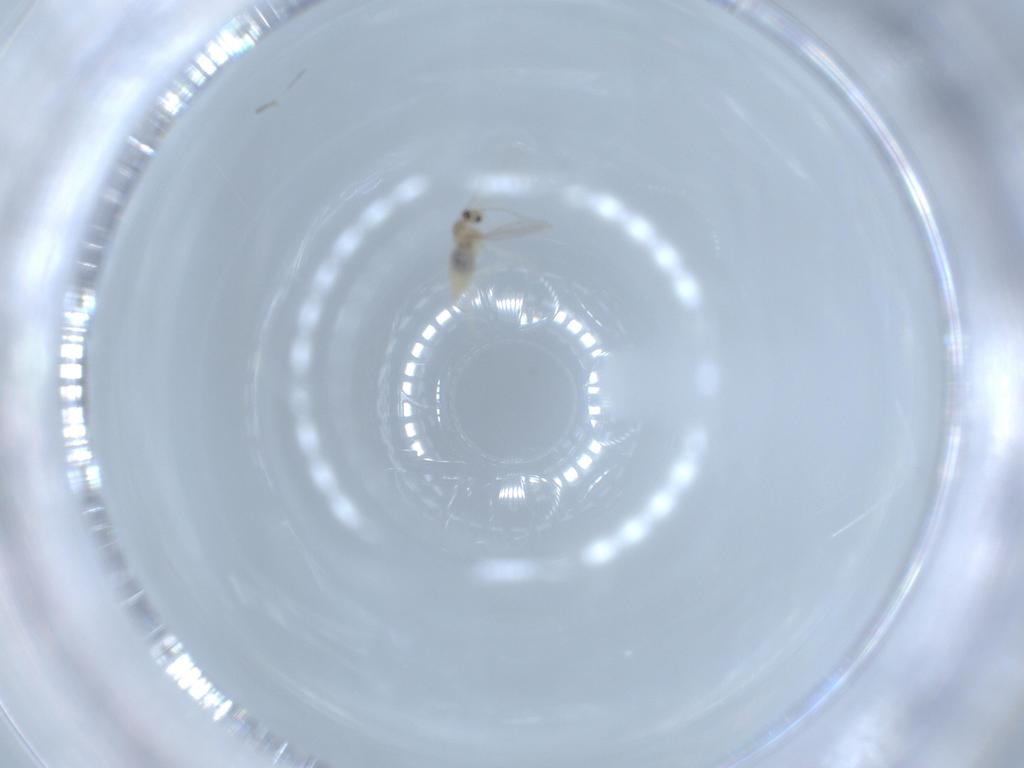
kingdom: Animalia
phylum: Arthropoda
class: Insecta
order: Diptera
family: Cecidomyiidae
